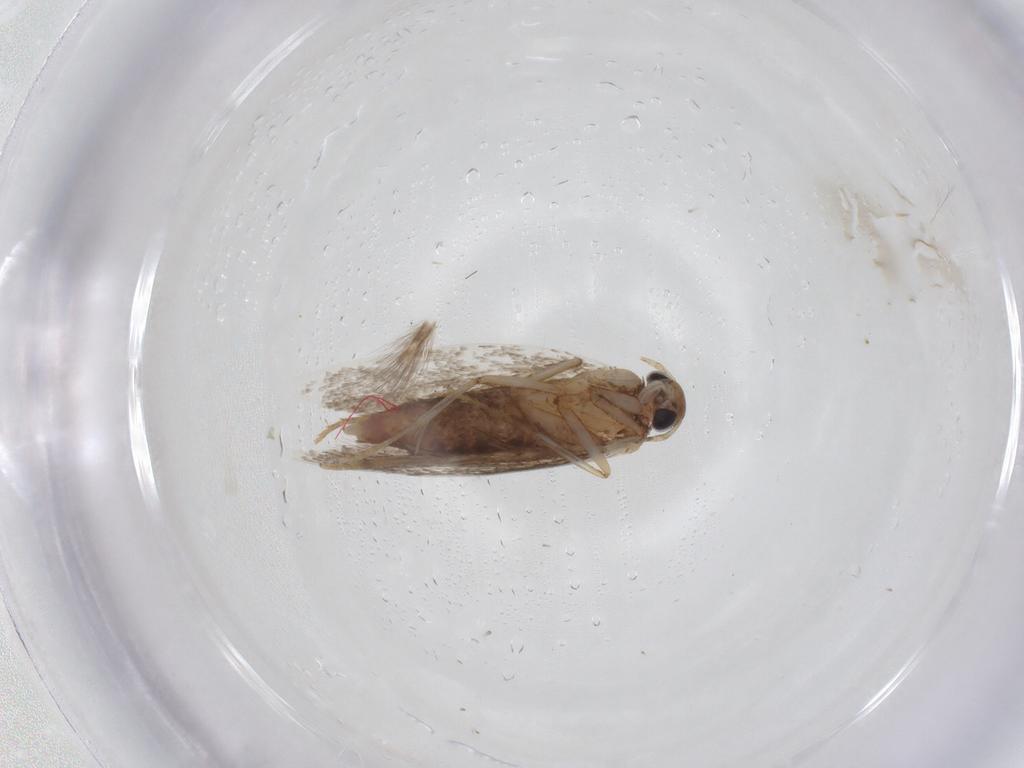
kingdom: Animalia
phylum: Arthropoda
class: Insecta
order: Lepidoptera
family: Gelechiidae
